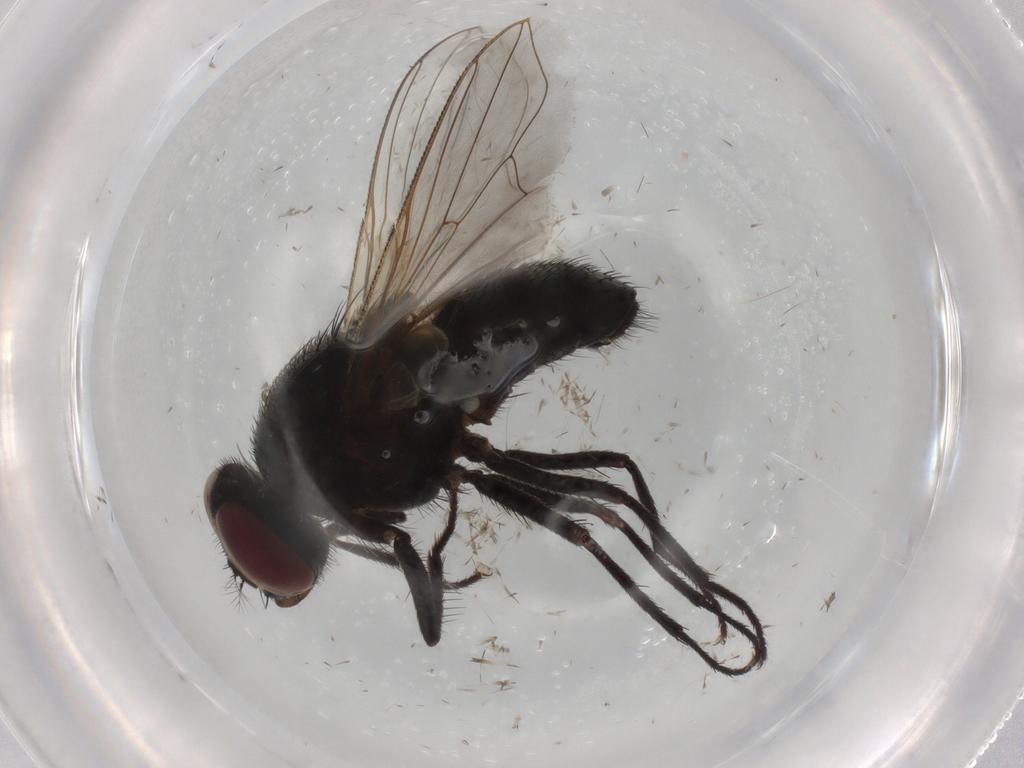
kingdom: Animalia
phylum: Arthropoda
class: Insecta
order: Diptera
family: Muscidae
